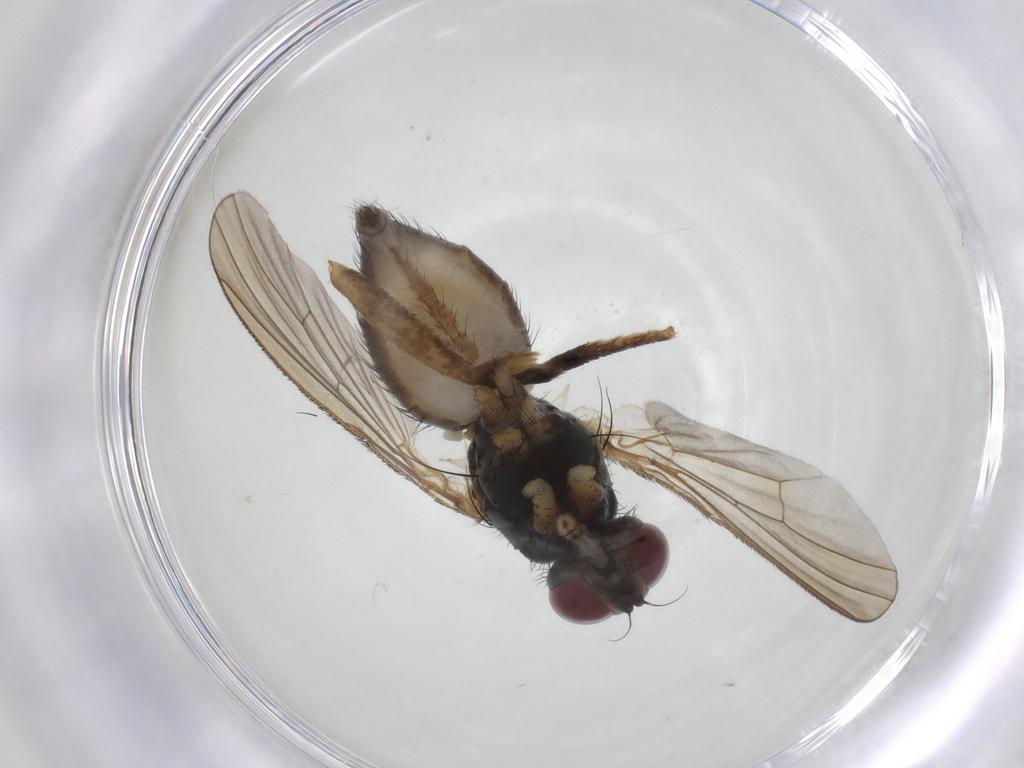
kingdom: Animalia
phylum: Arthropoda
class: Insecta
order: Diptera
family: Muscidae
